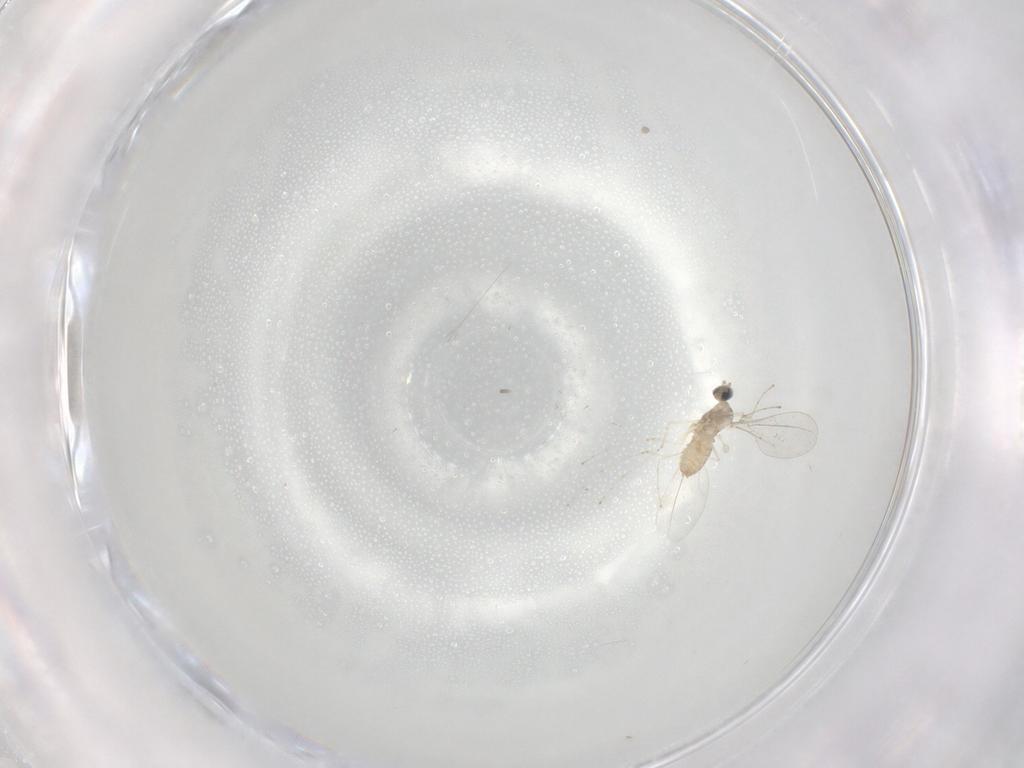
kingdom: Animalia
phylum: Arthropoda
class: Insecta
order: Diptera
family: Cecidomyiidae
